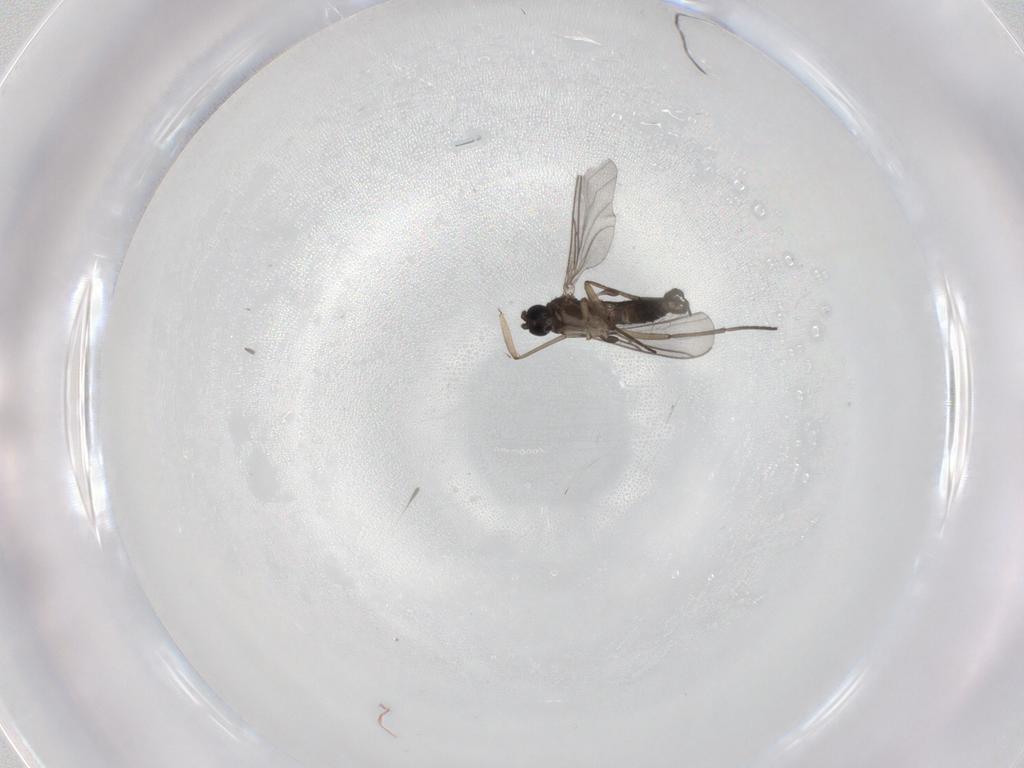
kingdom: Animalia
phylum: Arthropoda
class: Insecta
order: Diptera
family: Sciaridae
